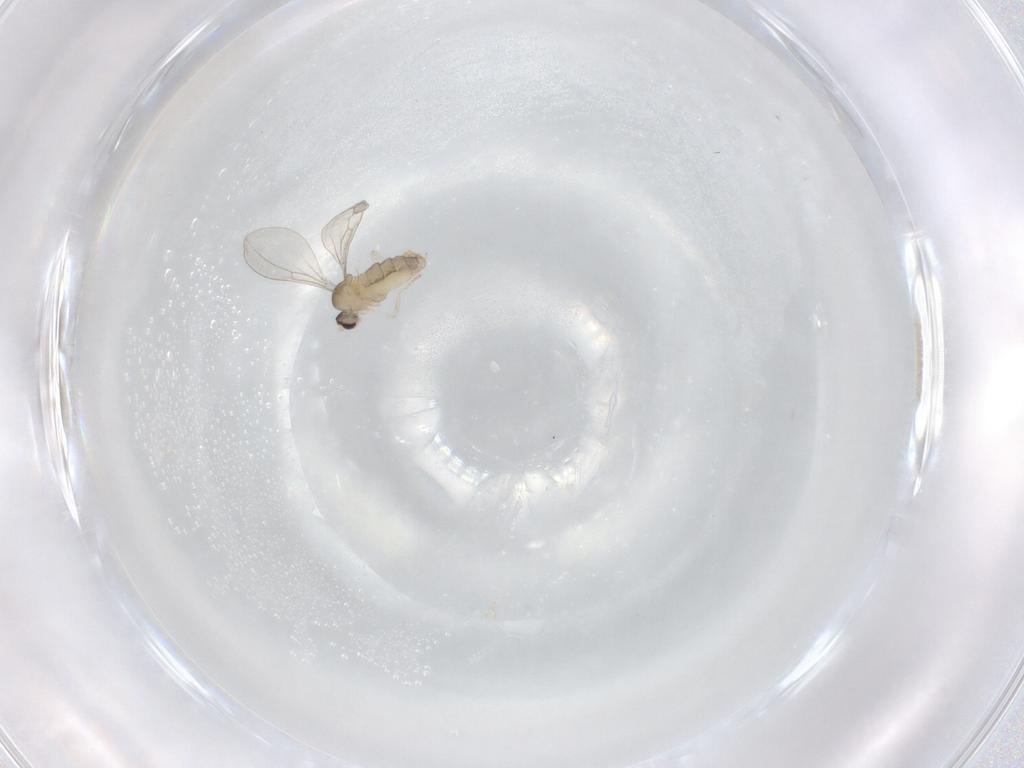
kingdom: Animalia
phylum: Arthropoda
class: Insecta
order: Diptera
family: Cecidomyiidae
